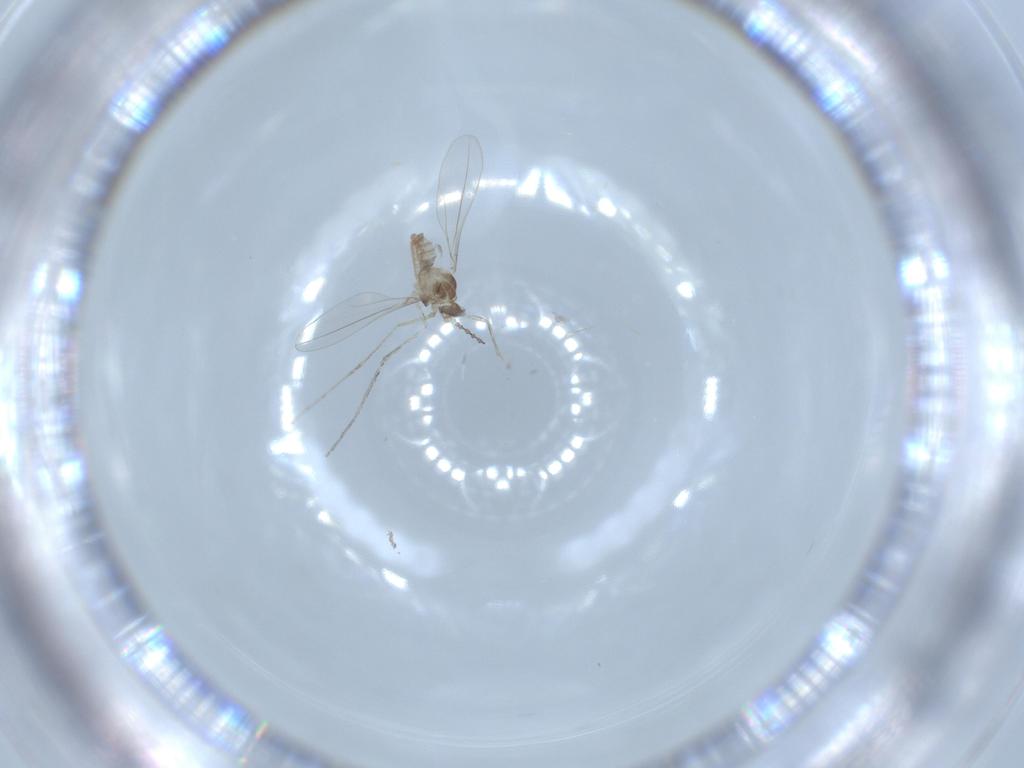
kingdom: Animalia
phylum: Arthropoda
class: Insecta
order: Diptera
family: Cecidomyiidae
